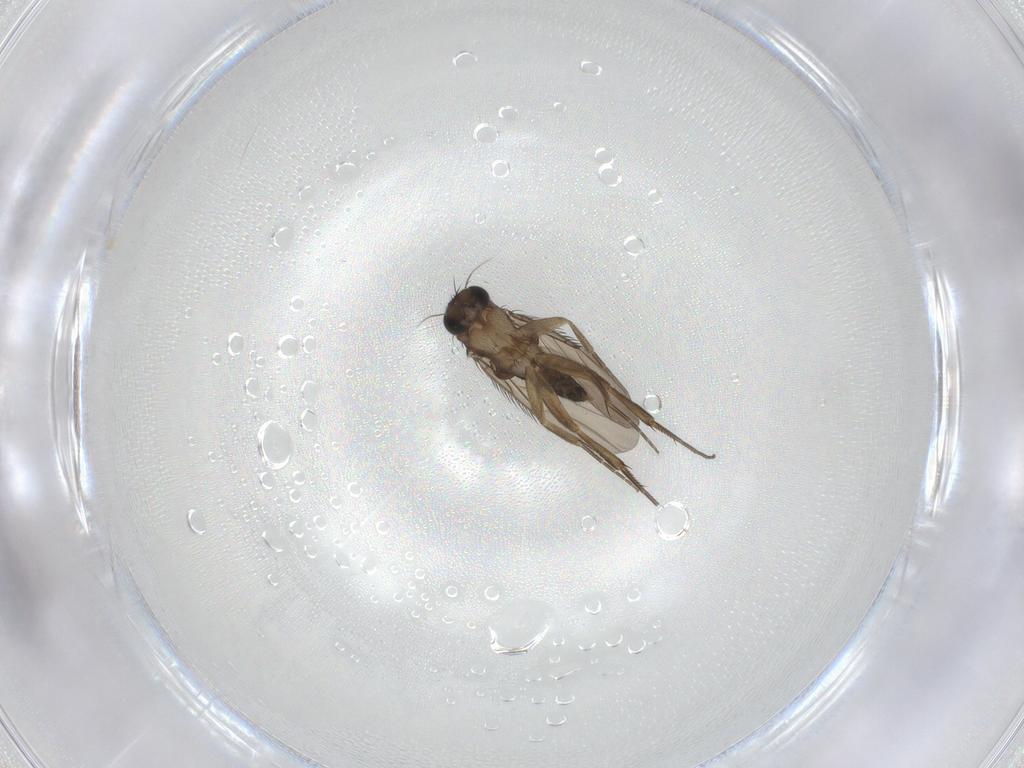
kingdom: Animalia
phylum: Arthropoda
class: Insecta
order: Diptera
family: Phoridae
